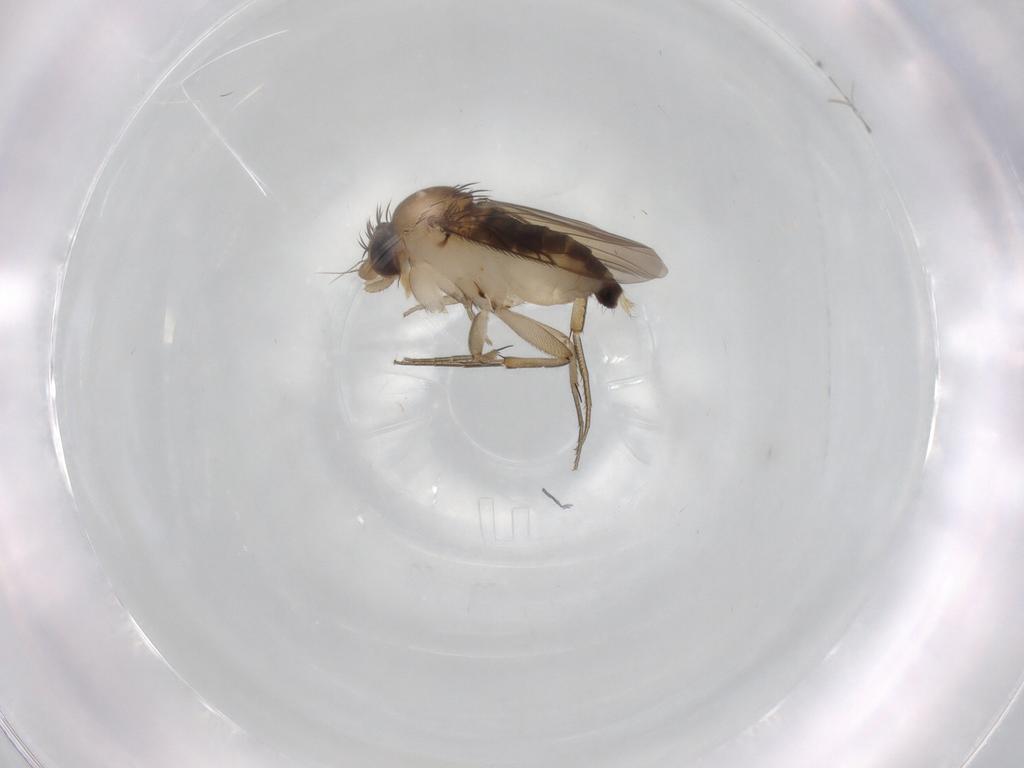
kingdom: Animalia
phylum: Arthropoda
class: Insecta
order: Diptera
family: Phoridae
